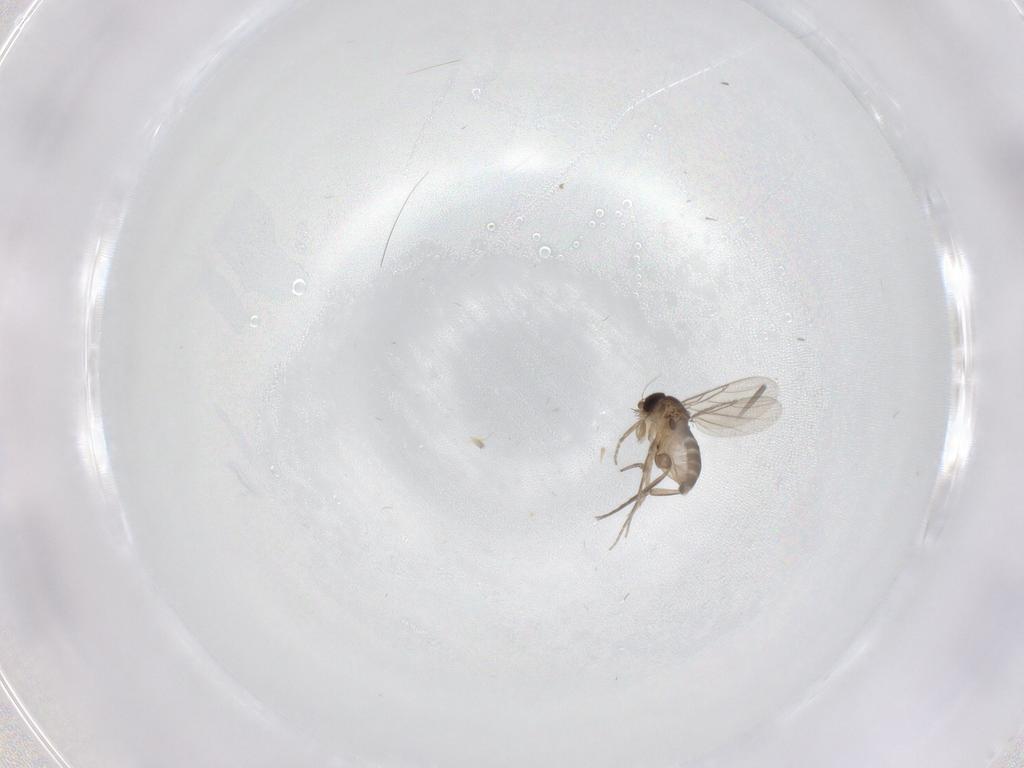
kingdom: Animalia
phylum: Arthropoda
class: Insecta
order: Diptera
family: Phoridae
